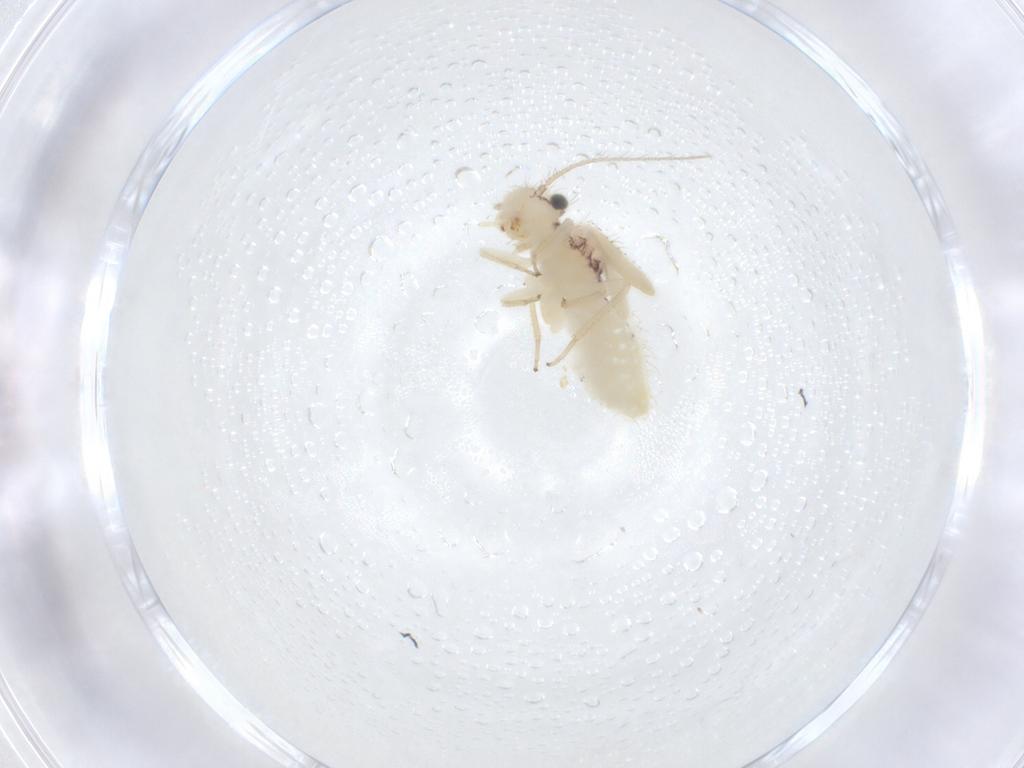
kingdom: Animalia
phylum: Arthropoda
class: Insecta
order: Psocodea
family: Pseudocaeciliidae
